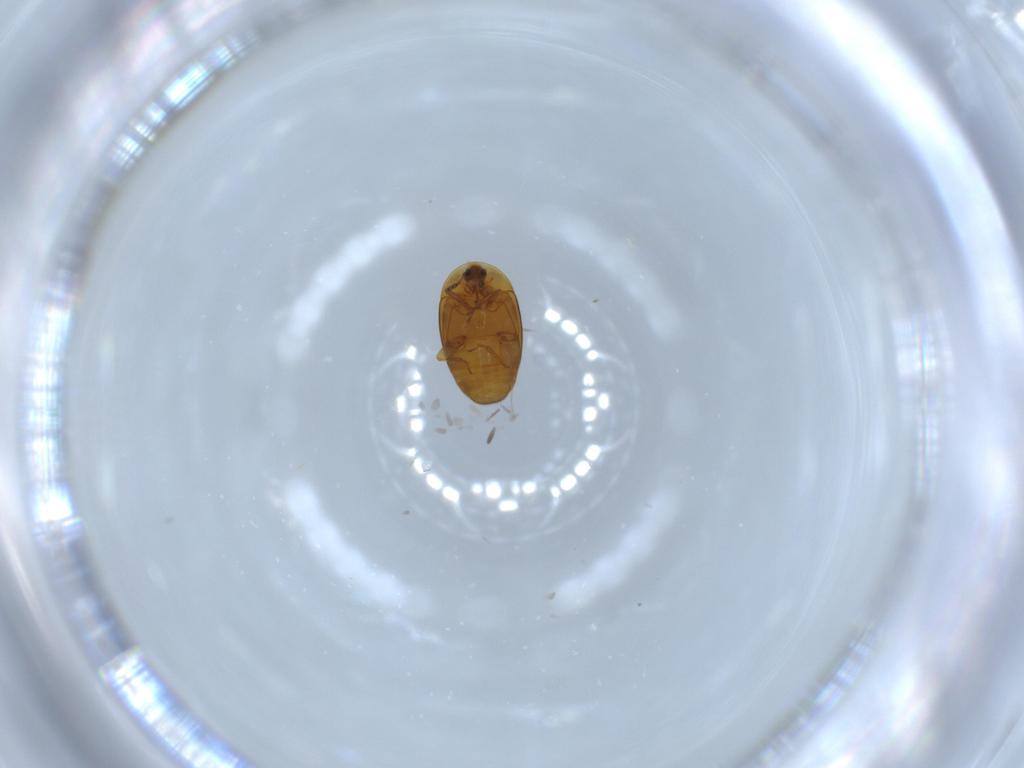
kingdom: Animalia
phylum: Arthropoda
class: Insecta
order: Coleoptera
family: Corylophidae
